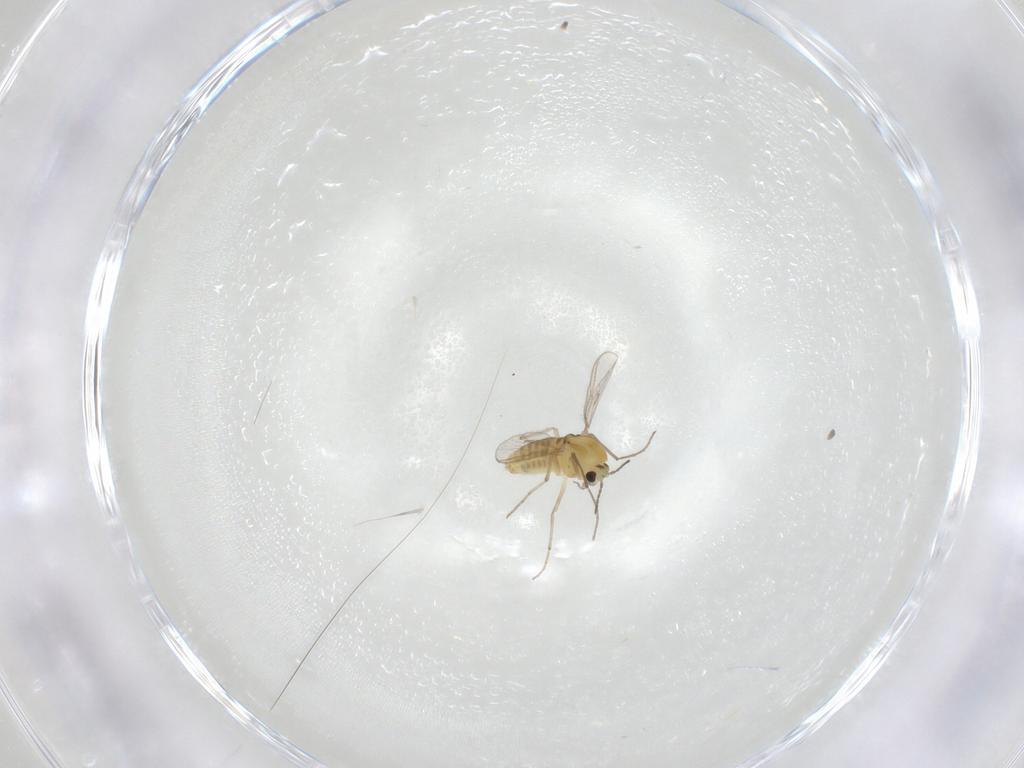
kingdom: Animalia
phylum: Arthropoda
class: Insecta
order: Diptera
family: Chironomidae
